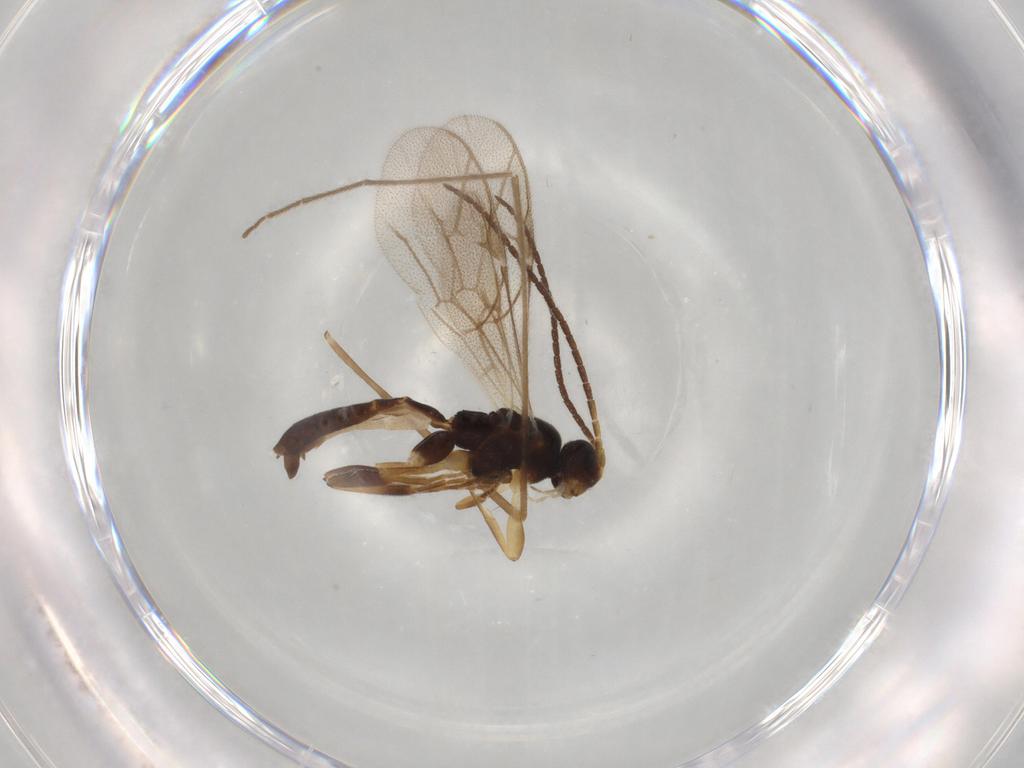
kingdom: Animalia
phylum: Arthropoda
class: Insecta
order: Hymenoptera
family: Ichneumonidae
